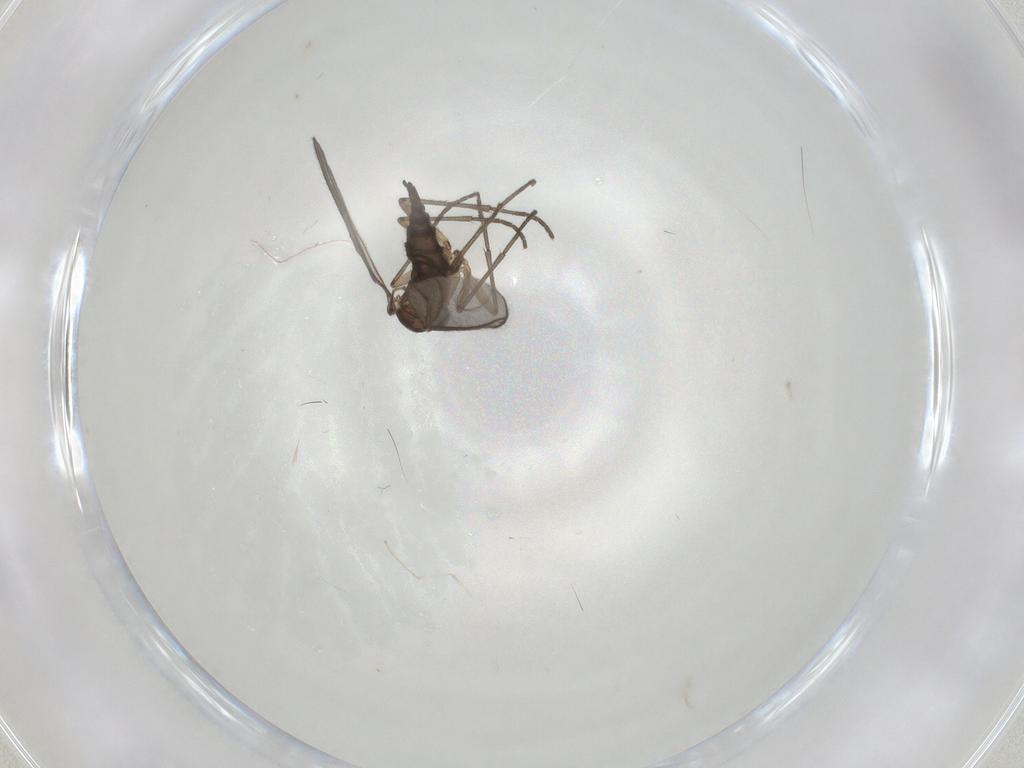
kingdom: Animalia
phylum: Arthropoda
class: Insecta
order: Diptera
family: Sciaridae
